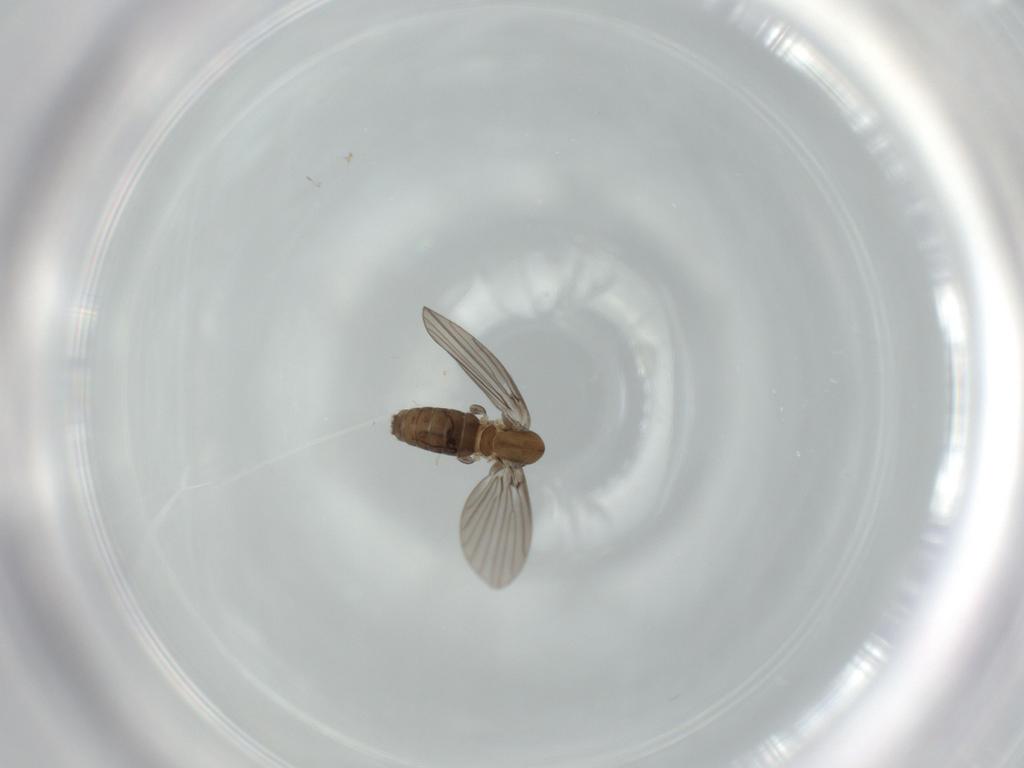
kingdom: Animalia
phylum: Arthropoda
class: Insecta
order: Diptera
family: Psychodidae
